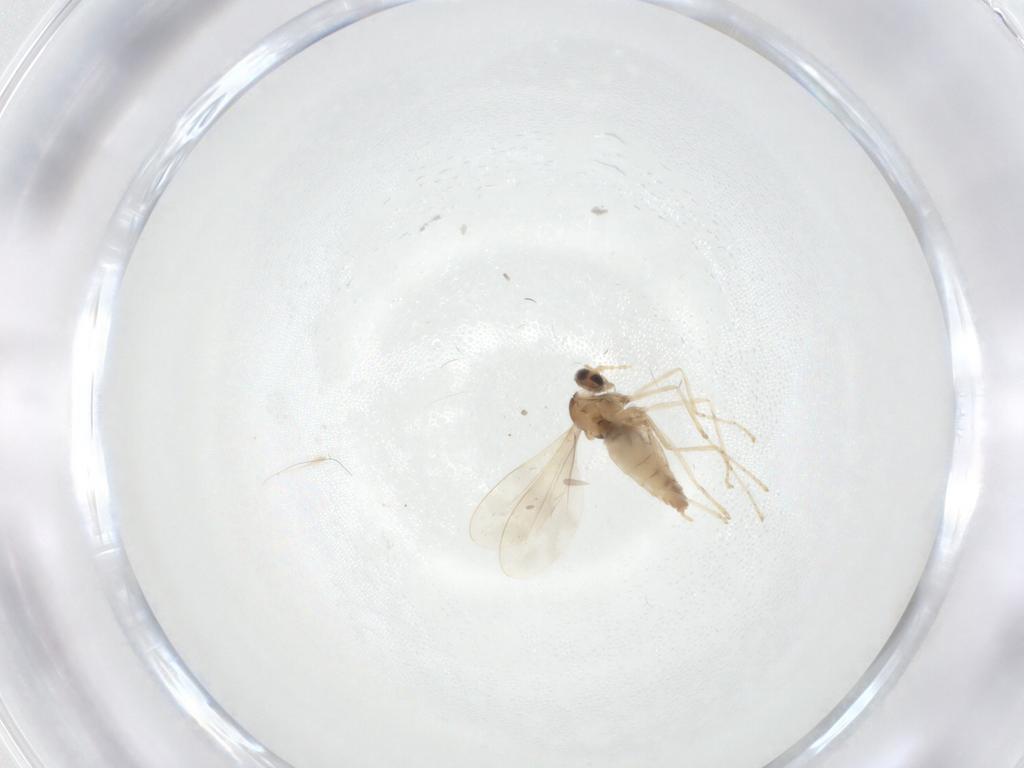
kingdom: Animalia
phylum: Arthropoda
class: Insecta
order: Diptera
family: Cecidomyiidae
